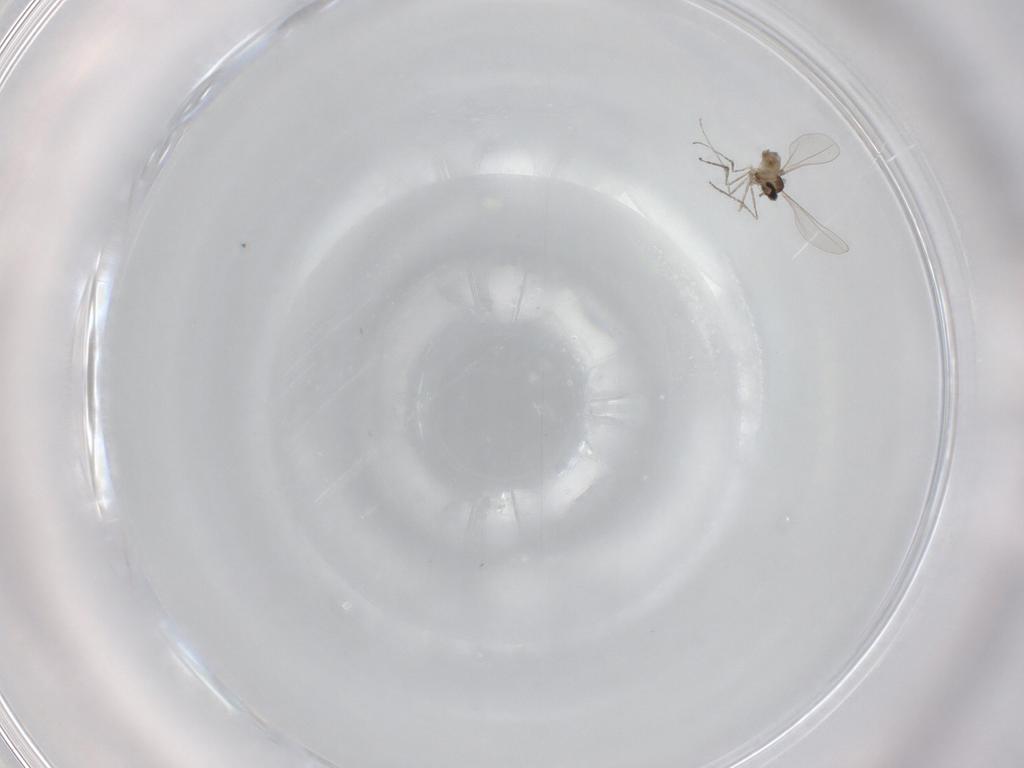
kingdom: Animalia
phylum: Arthropoda
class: Insecta
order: Diptera
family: Cecidomyiidae
